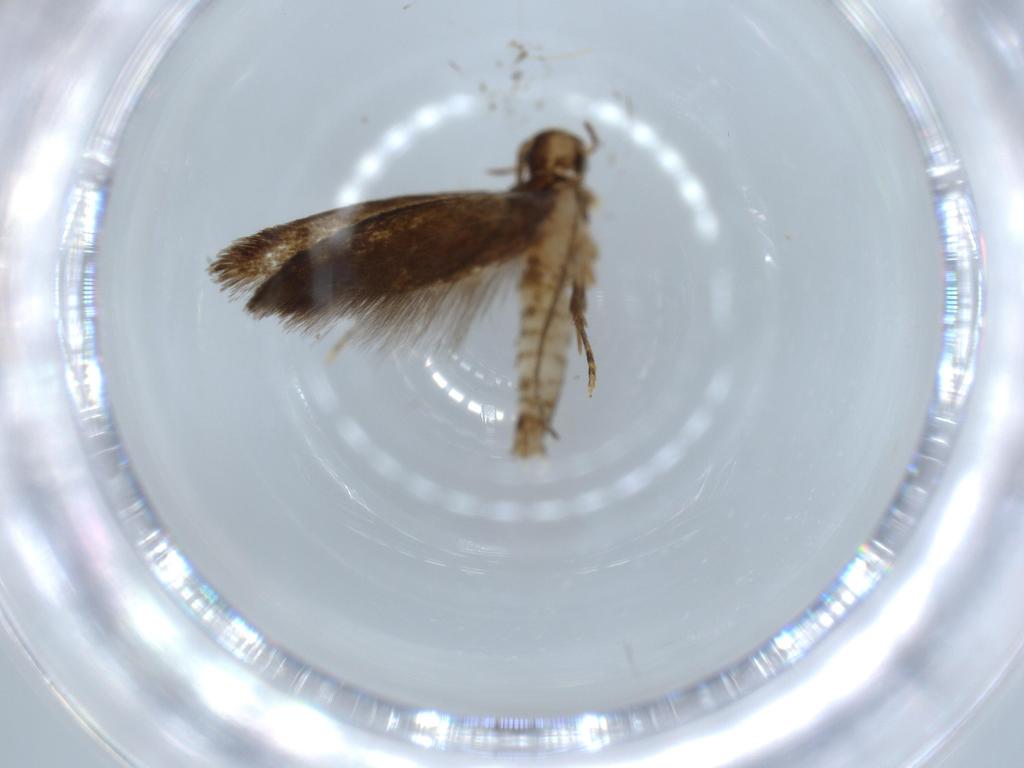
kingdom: Animalia
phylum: Arthropoda
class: Insecta
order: Lepidoptera
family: Tineidae
